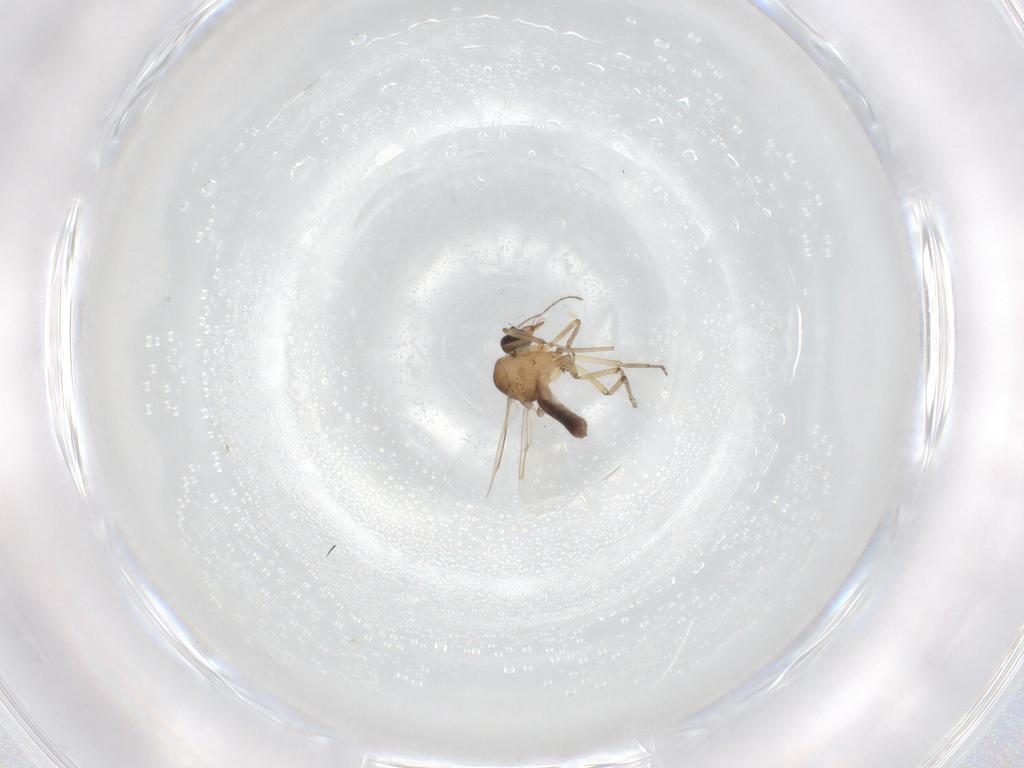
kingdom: Animalia
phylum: Arthropoda
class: Insecta
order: Diptera
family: Ceratopogonidae
